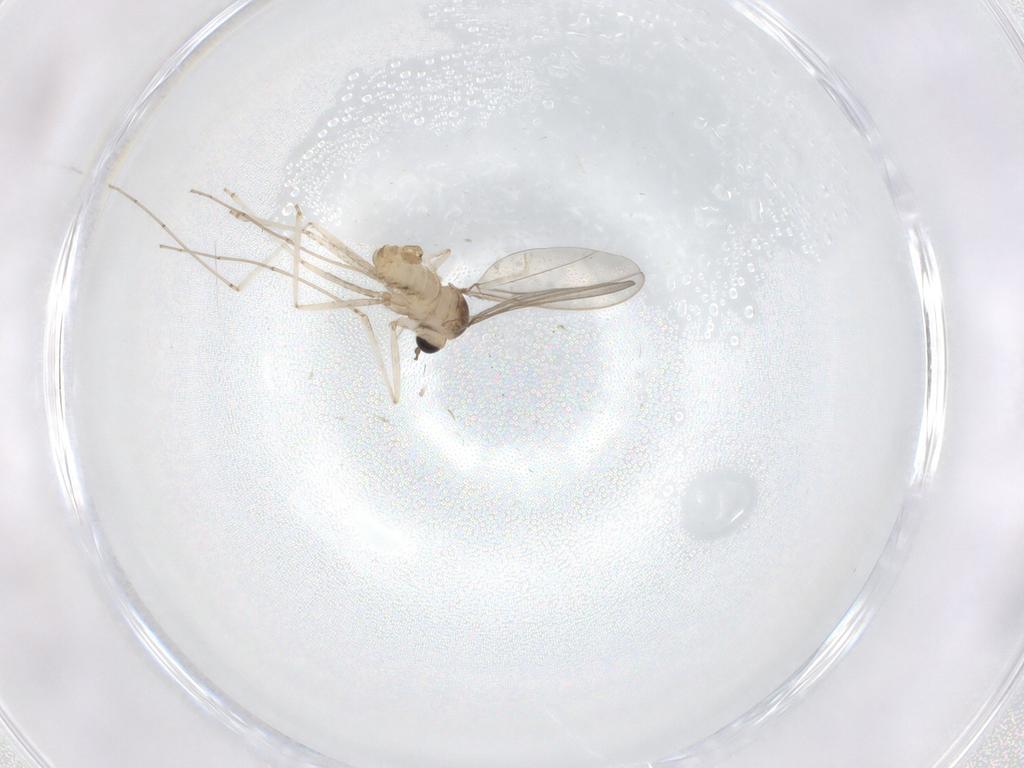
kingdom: Animalia
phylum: Arthropoda
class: Insecta
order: Diptera
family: Cecidomyiidae
